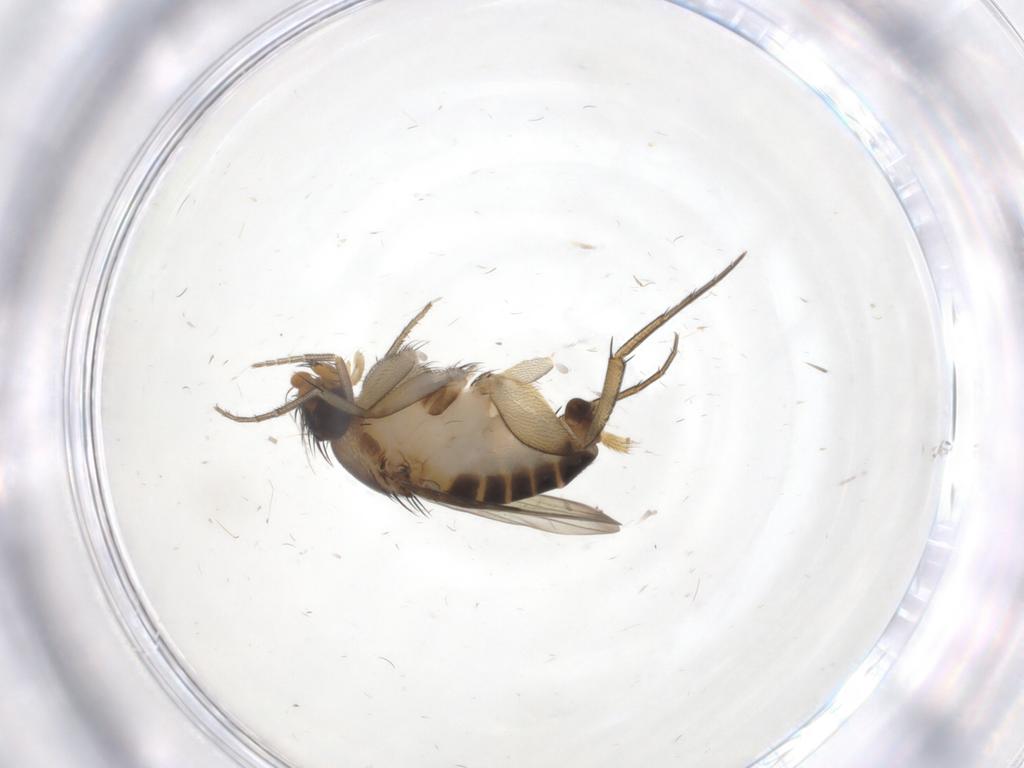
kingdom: Animalia
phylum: Arthropoda
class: Insecta
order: Diptera
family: Phoridae
